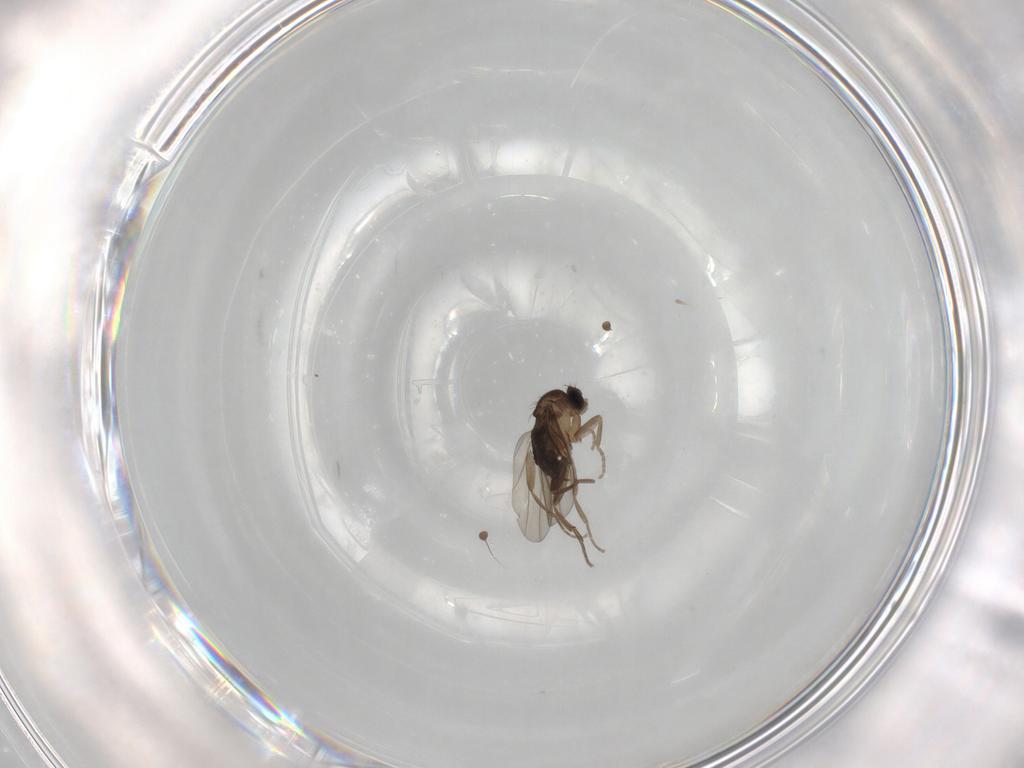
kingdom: Animalia
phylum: Arthropoda
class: Insecta
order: Diptera
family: Phoridae
